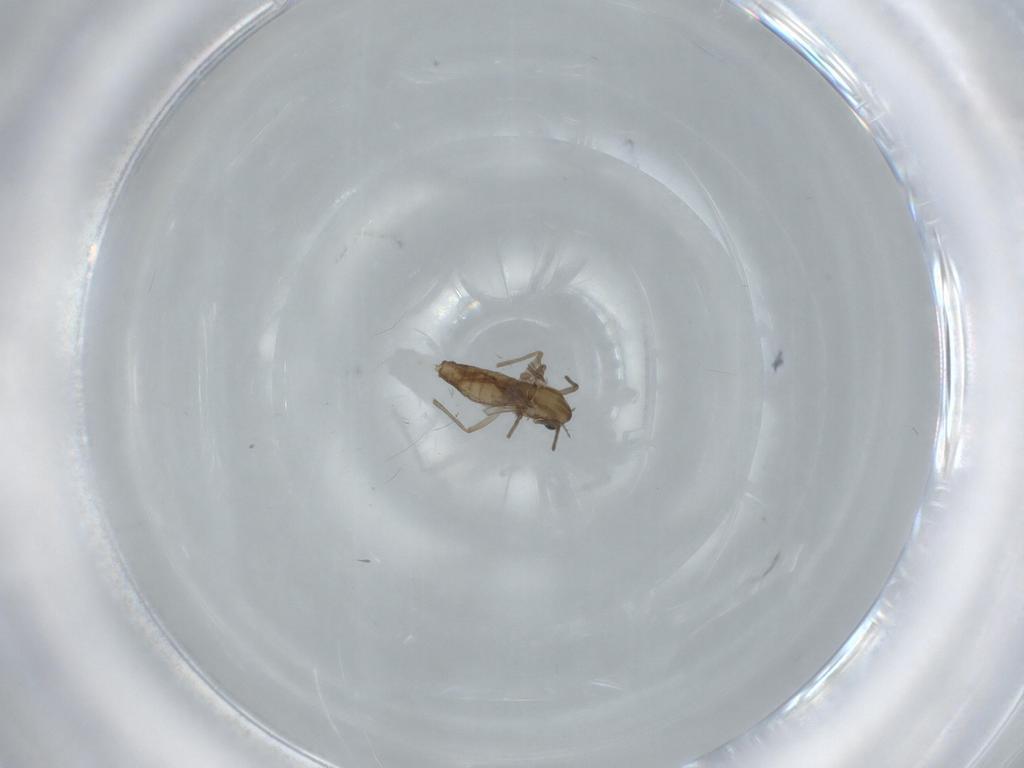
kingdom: Animalia
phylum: Arthropoda
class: Insecta
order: Diptera
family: Chironomidae
